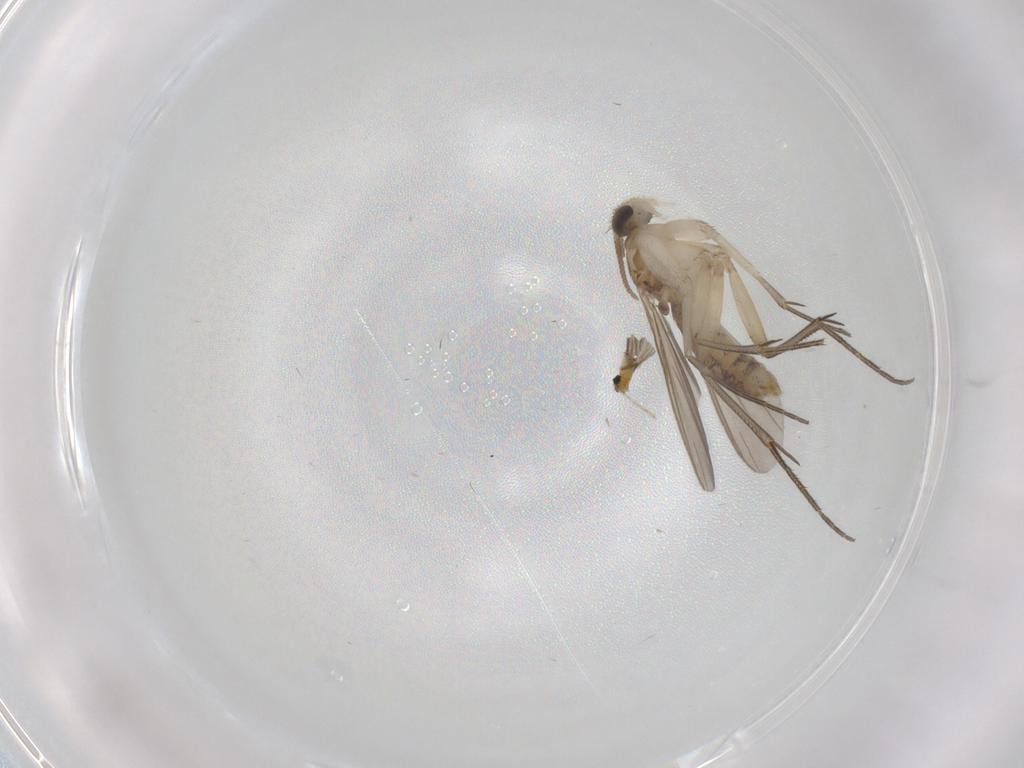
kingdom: Animalia
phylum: Arthropoda
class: Insecta
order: Diptera
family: Mycetophilidae
